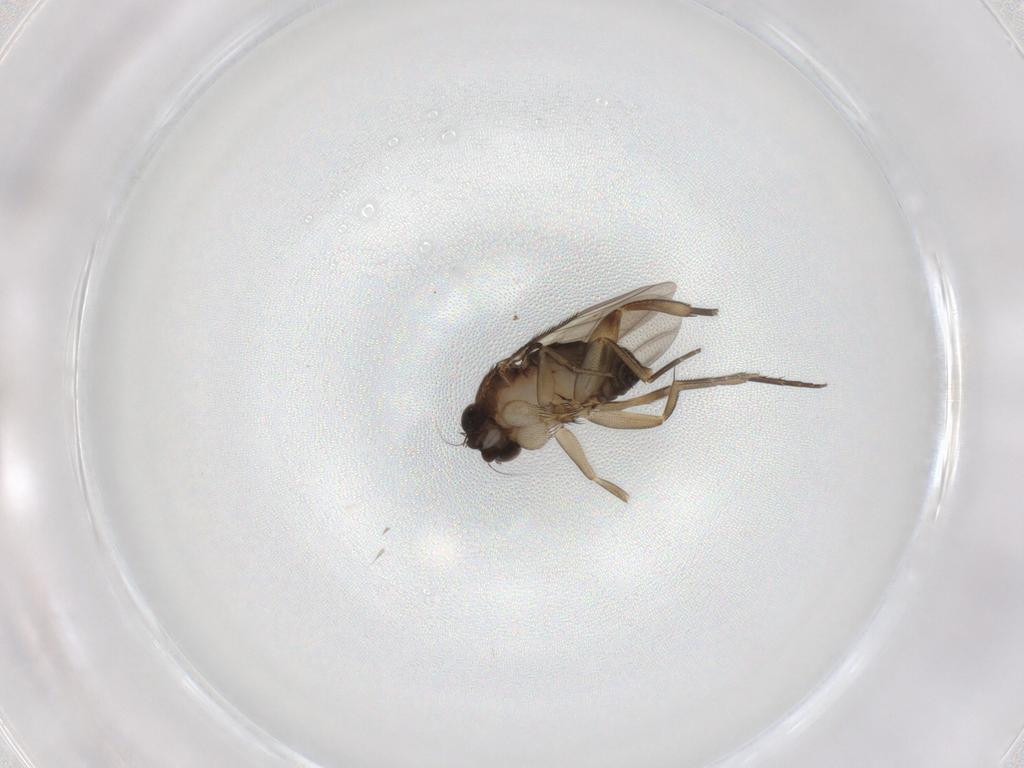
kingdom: Animalia
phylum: Arthropoda
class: Insecta
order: Diptera
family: Phoridae
